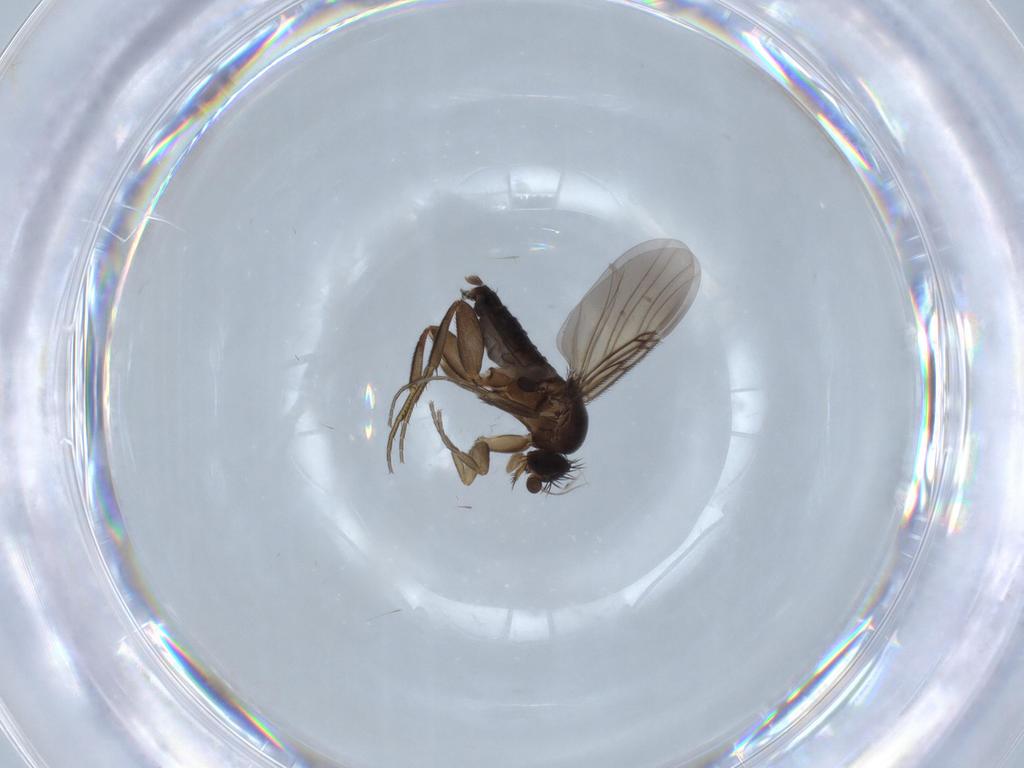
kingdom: Animalia
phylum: Arthropoda
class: Insecta
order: Diptera
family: Phoridae
